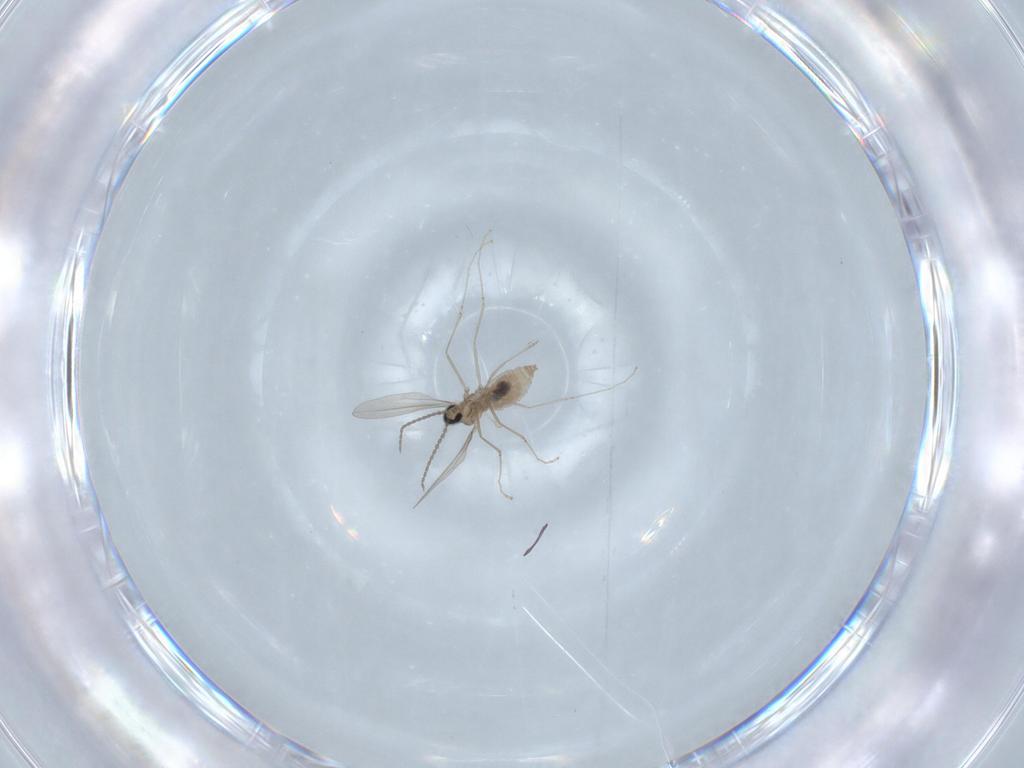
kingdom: Animalia
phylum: Arthropoda
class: Insecta
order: Diptera
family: Cecidomyiidae
